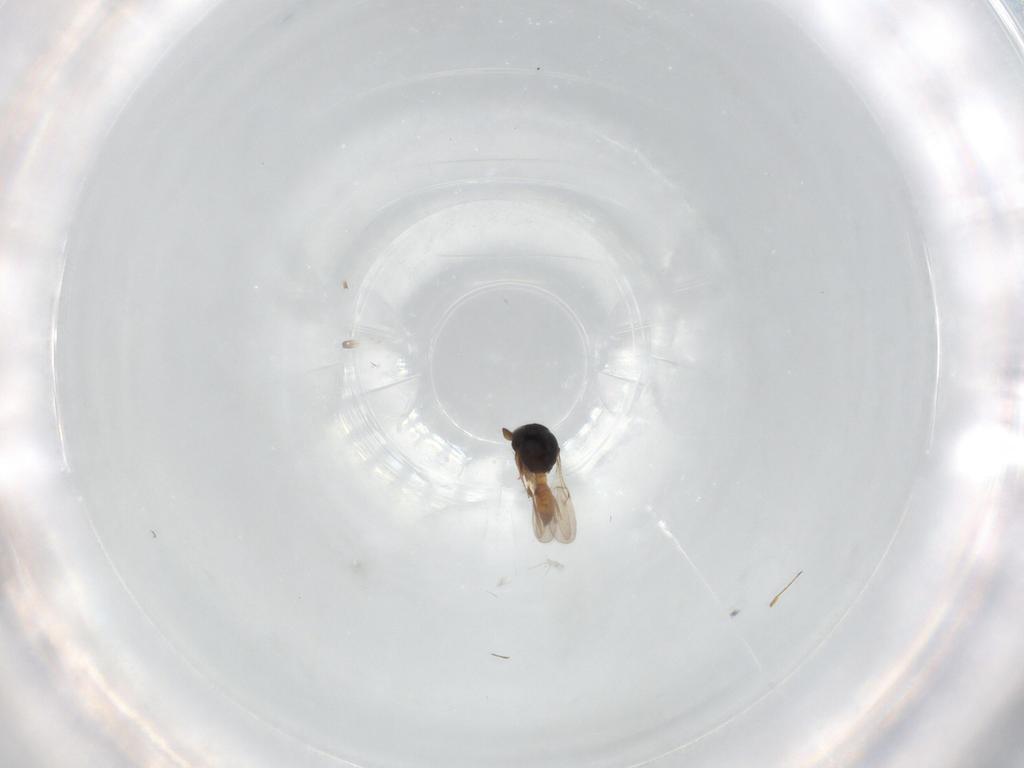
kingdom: Animalia
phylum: Arthropoda
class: Arachnida
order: Araneae
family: Pholcidae
